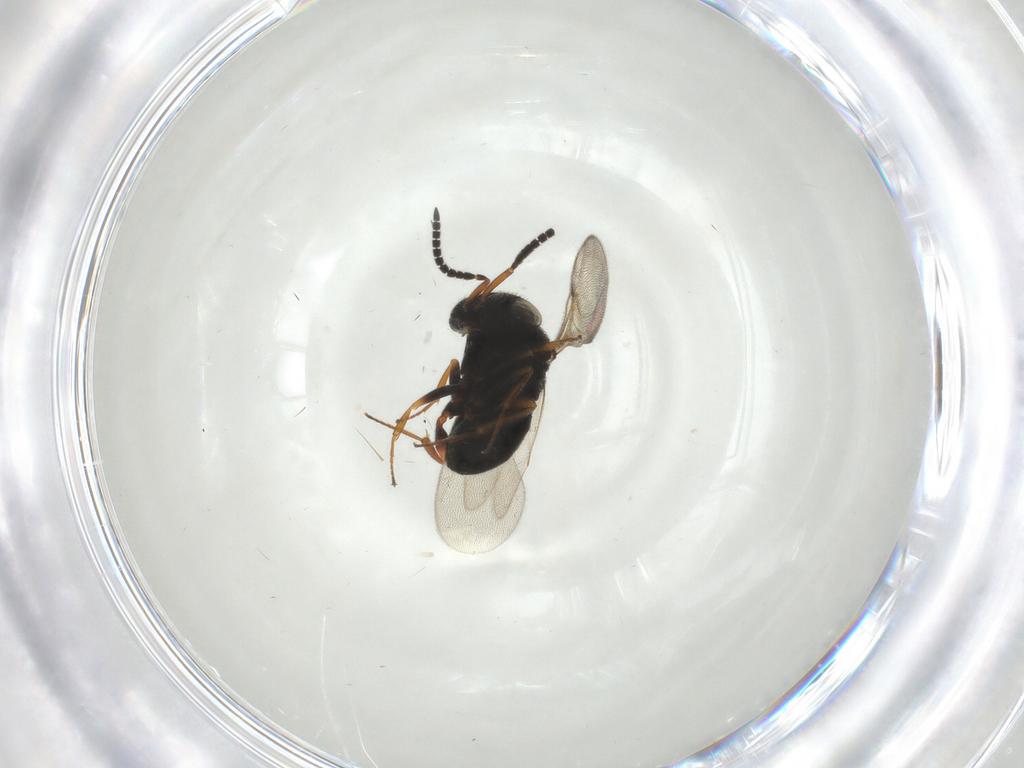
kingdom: Animalia
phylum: Arthropoda
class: Insecta
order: Hymenoptera
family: Scelionidae
